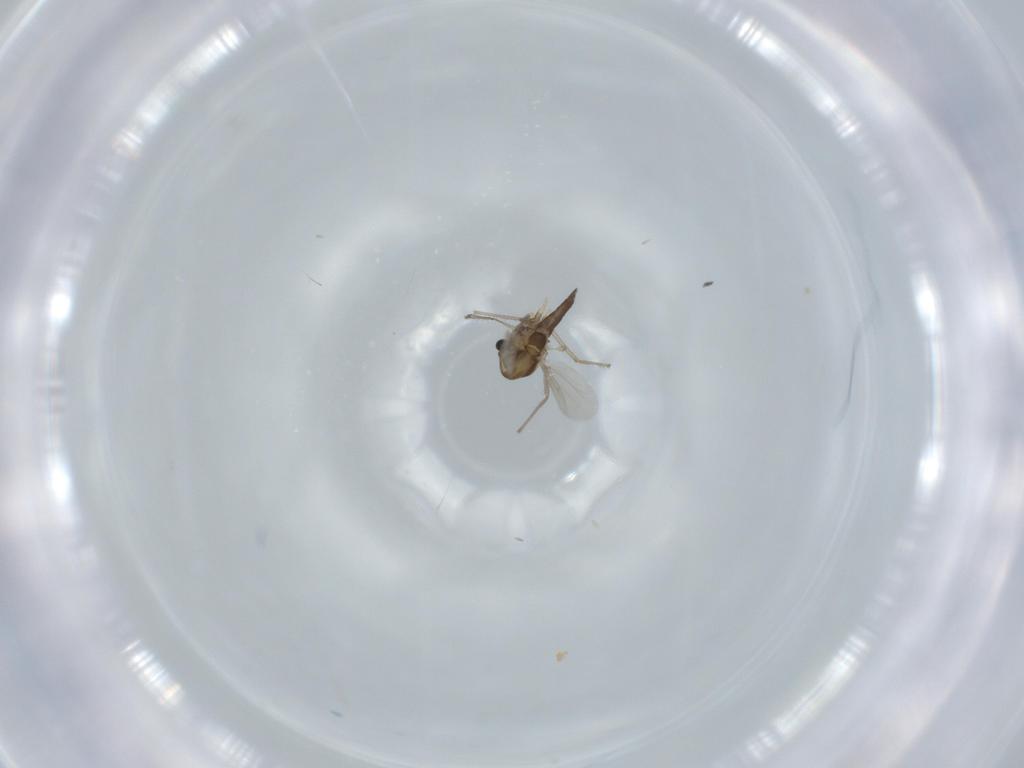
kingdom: Animalia
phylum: Arthropoda
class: Insecta
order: Diptera
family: Chironomidae
